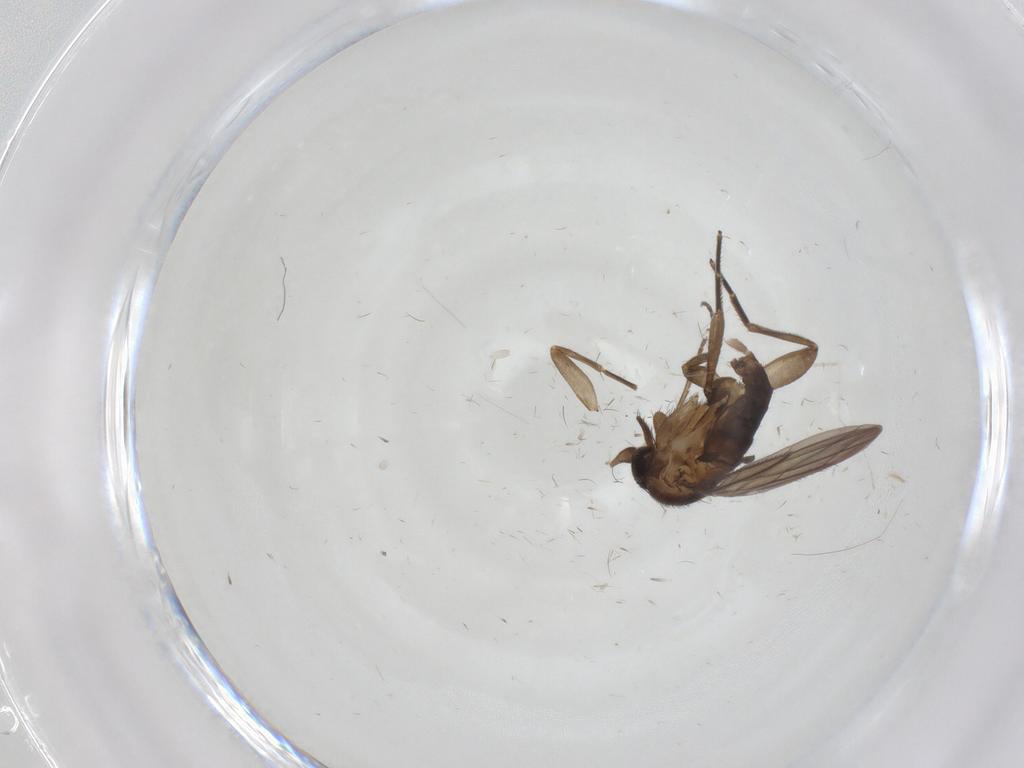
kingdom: Animalia
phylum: Arthropoda
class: Insecta
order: Diptera
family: Phoridae
